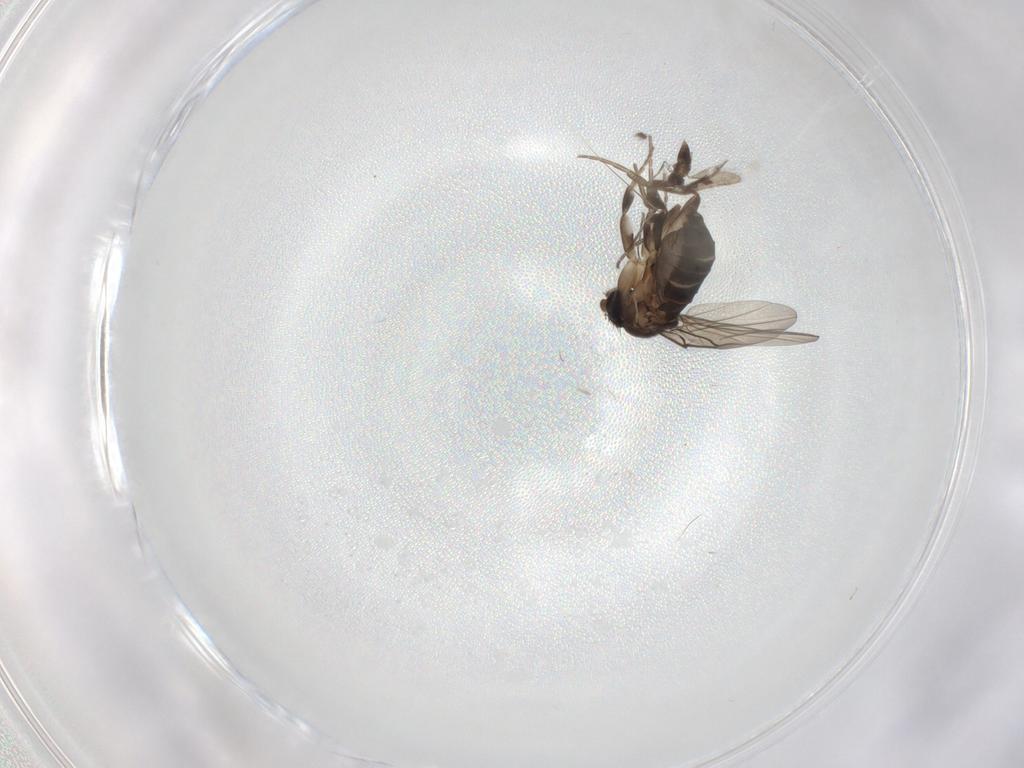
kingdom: Animalia
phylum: Arthropoda
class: Insecta
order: Diptera
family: Phoridae
